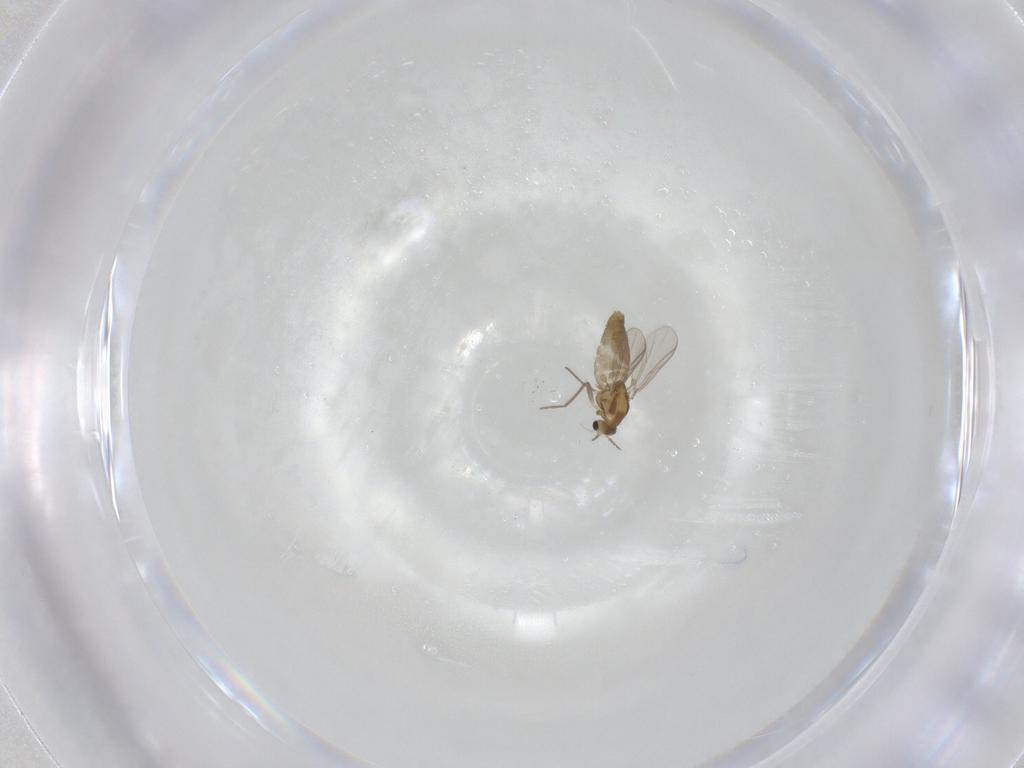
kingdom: Animalia
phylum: Arthropoda
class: Insecta
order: Diptera
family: Chironomidae
